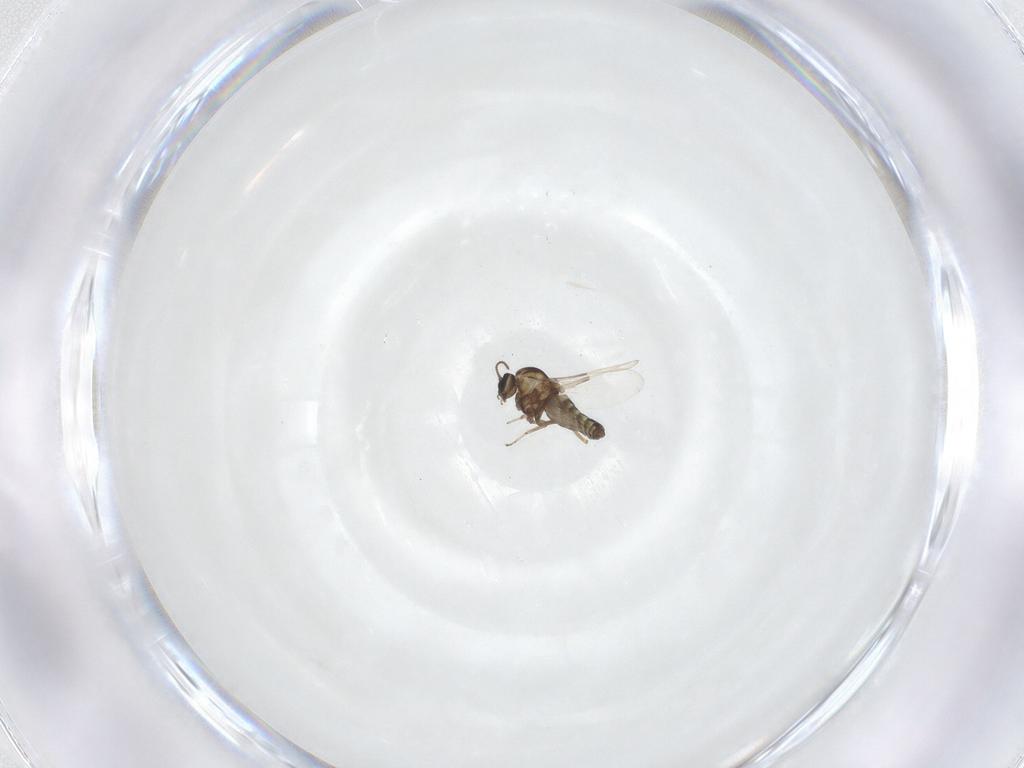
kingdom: Animalia
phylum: Arthropoda
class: Insecta
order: Diptera
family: Ceratopogonidae
